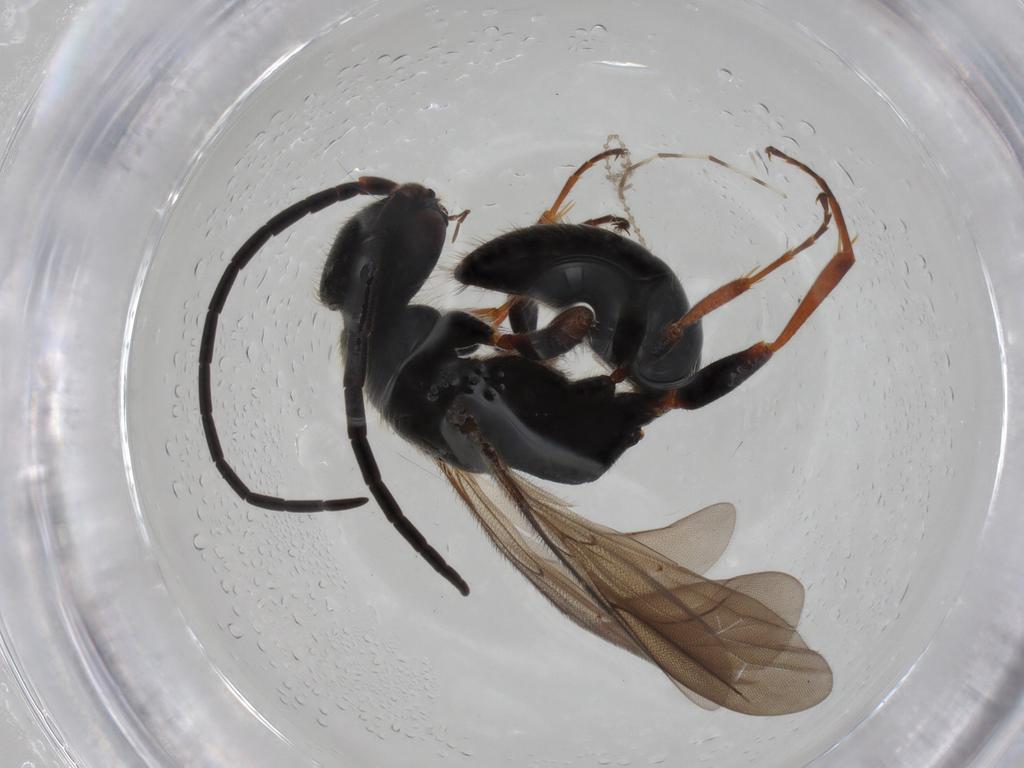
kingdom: Animalia
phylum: Arthropoda
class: Insecta
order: Hymenoptera
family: Bethylidae
